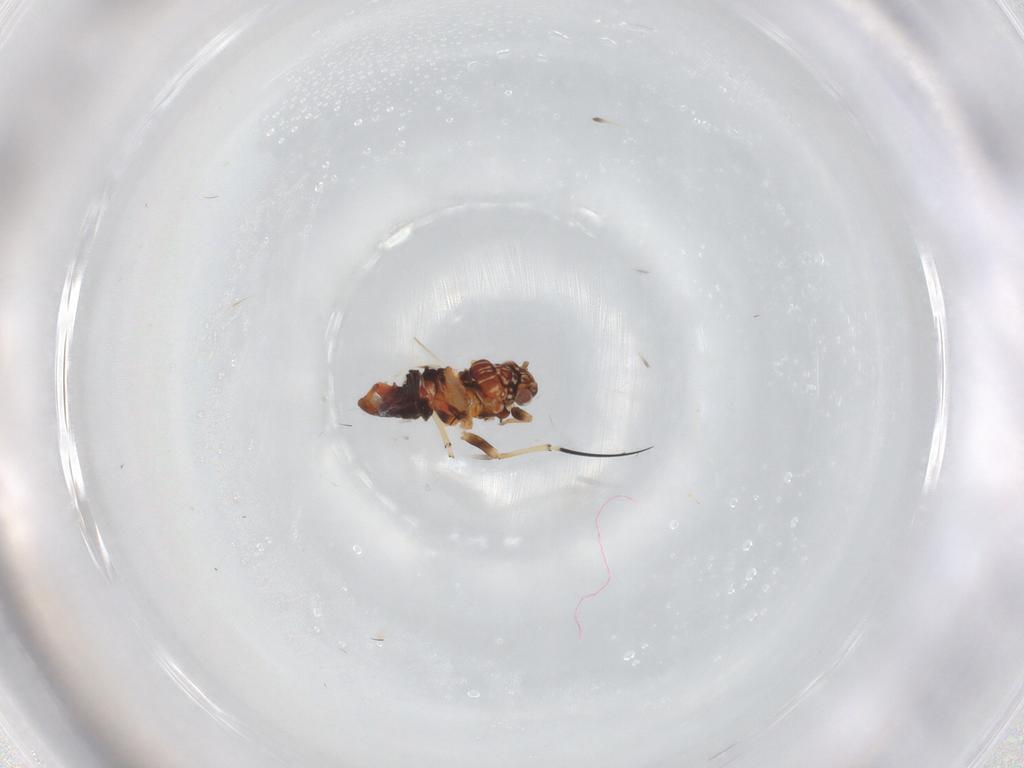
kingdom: Animalia
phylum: Arthropoda
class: Insecta
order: Hemiptera
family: Psyllidae
